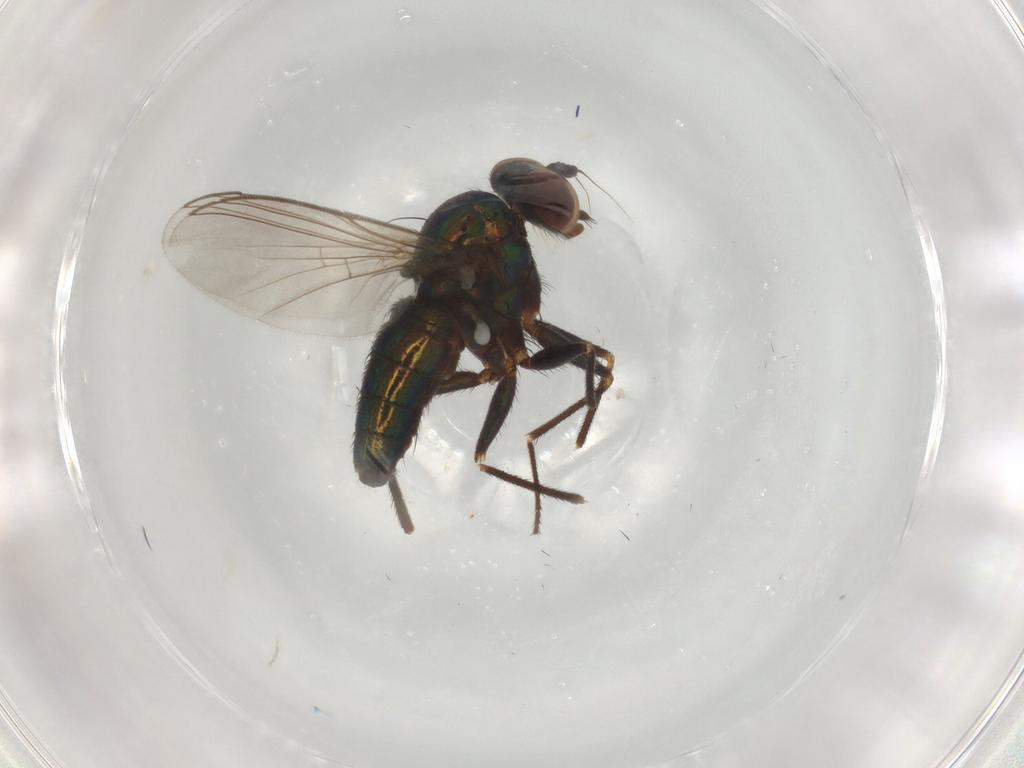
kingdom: Animalia
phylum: Arthropoda
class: Insecta
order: Diptera
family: Dolichopodidae
